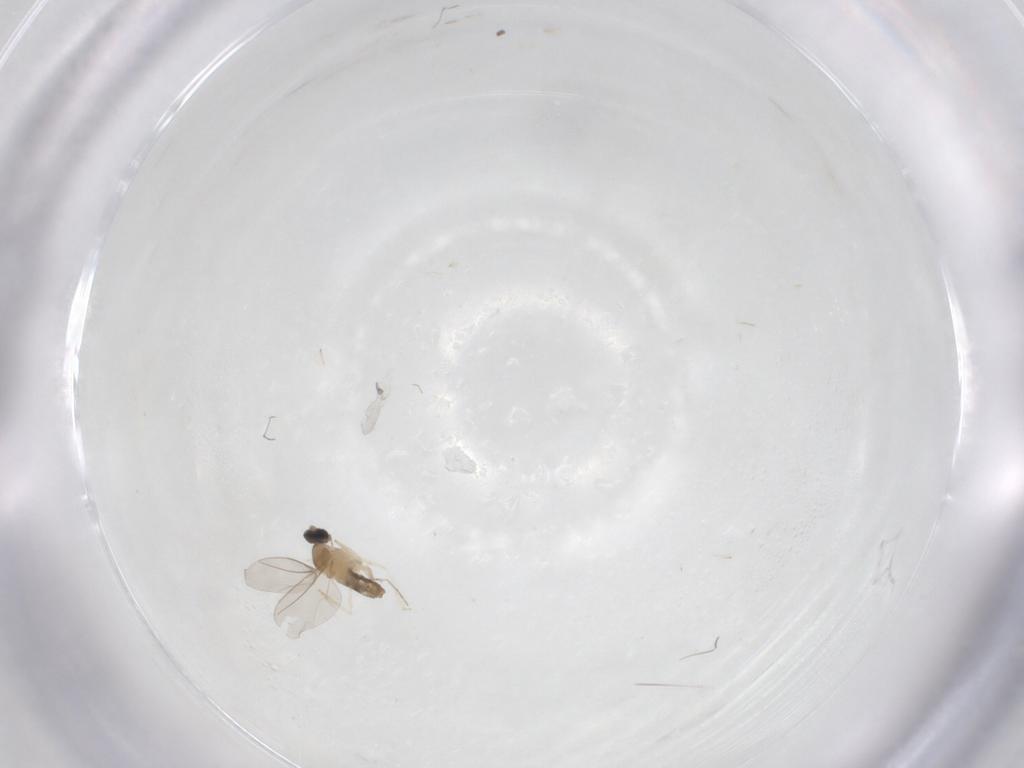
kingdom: Animalia
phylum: Arthropoda
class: Insecta
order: Diptera
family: Cecidomyiidae
